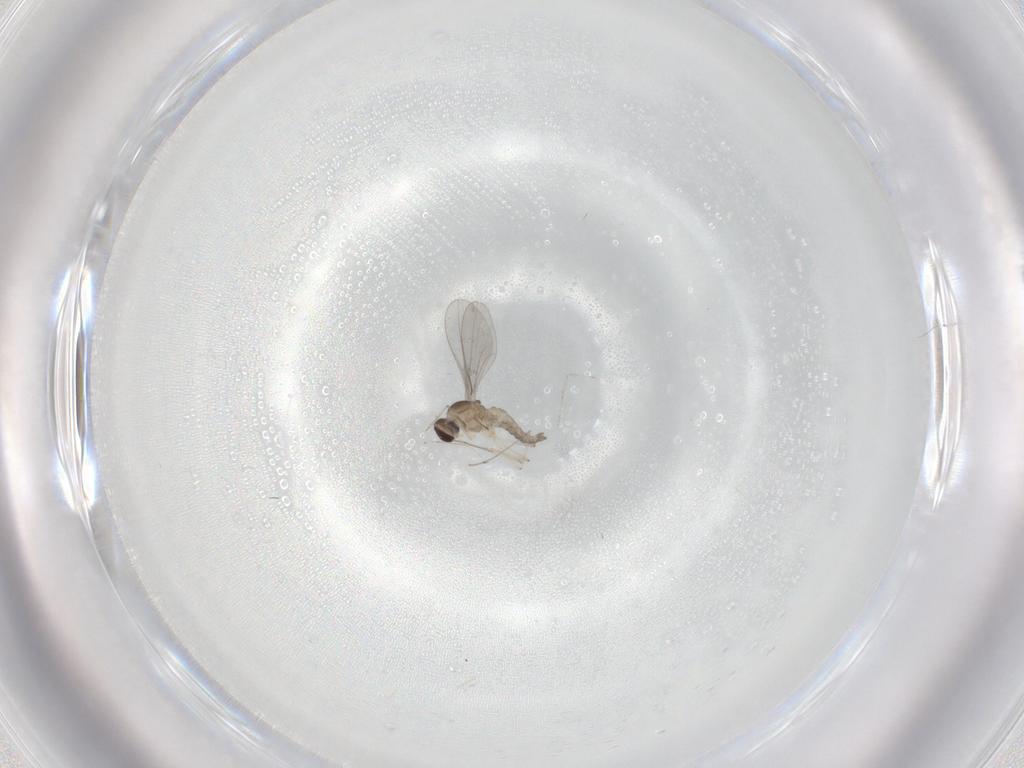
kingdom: Animalia
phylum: Arthropoda
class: Insecta
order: Diptera
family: Cecidomyiidae
